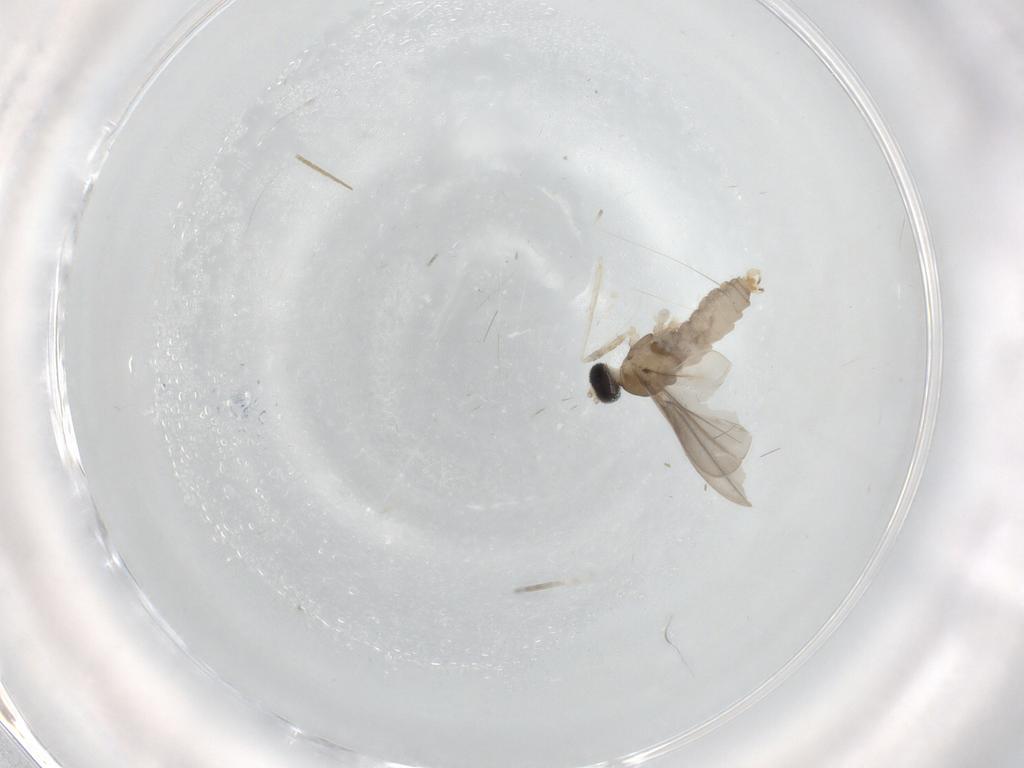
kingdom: Animalia
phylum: Arthropoda
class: Insecta
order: Diptera
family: Cecidomyiidae
